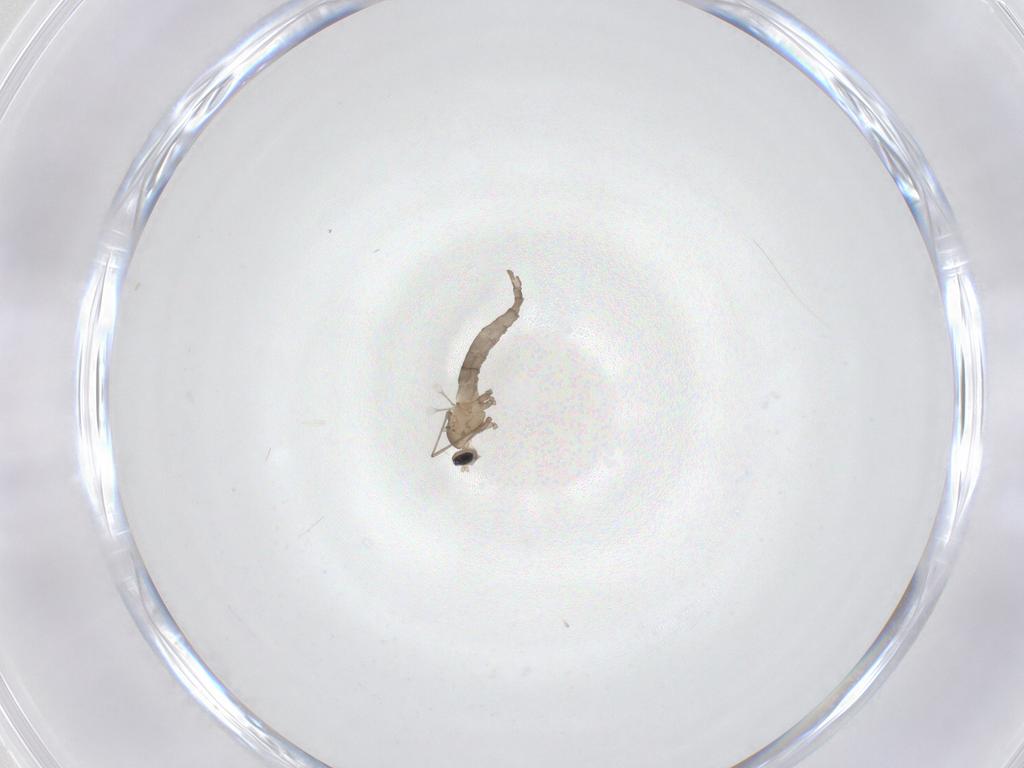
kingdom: Animalia
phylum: Arthropoda
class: Insecta
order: Diptera
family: Cecidomyiidae
